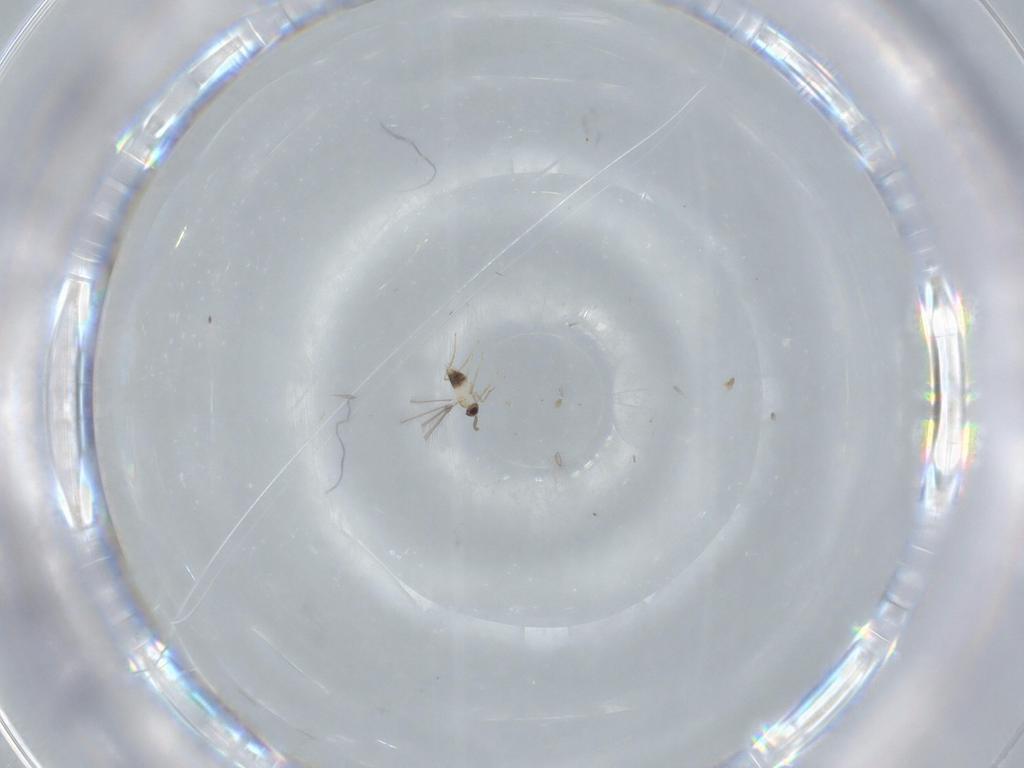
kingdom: Animalia
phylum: Arthropoda
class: Insecta
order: Hymenoptera
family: Mymaridae
